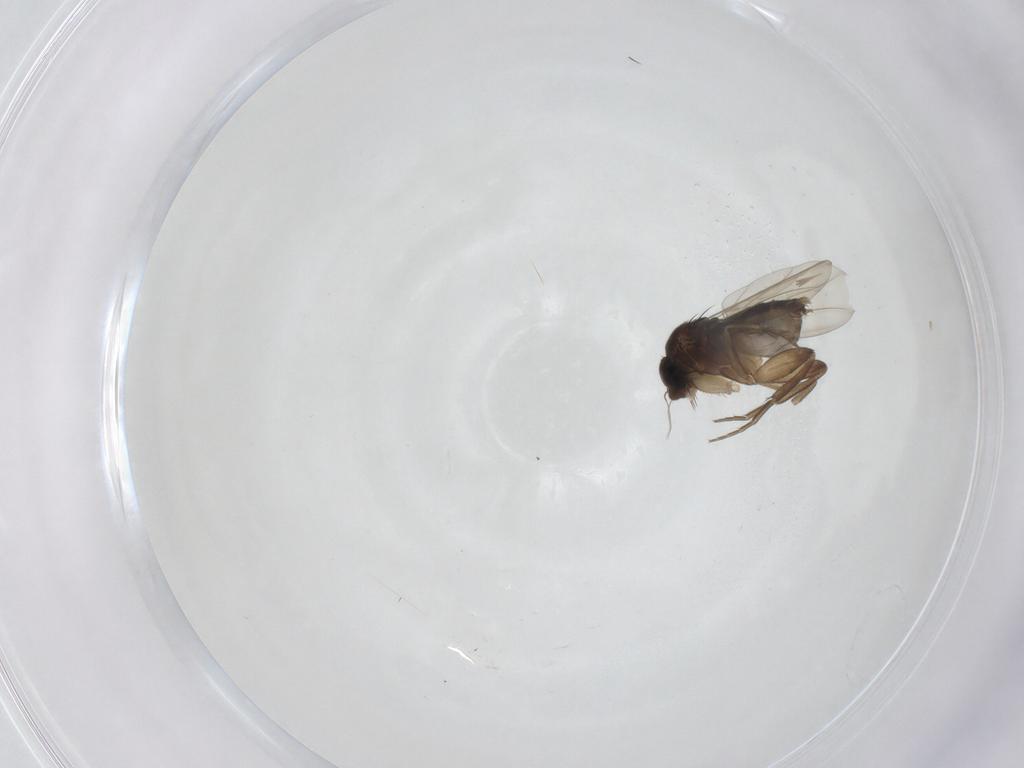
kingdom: Animalia
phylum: Arthropoda
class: Insecta
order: Diptera
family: Phoridae
